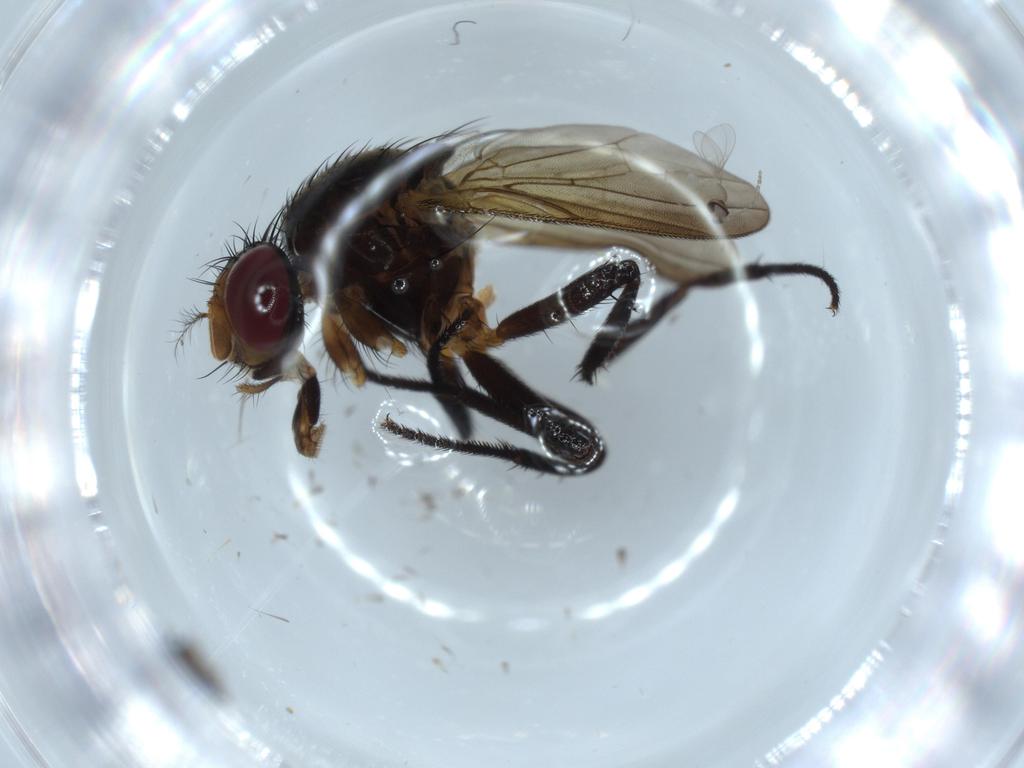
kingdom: Animalia
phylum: Arthropoda
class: Insecta
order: Diptera
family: Anthomyiidae
